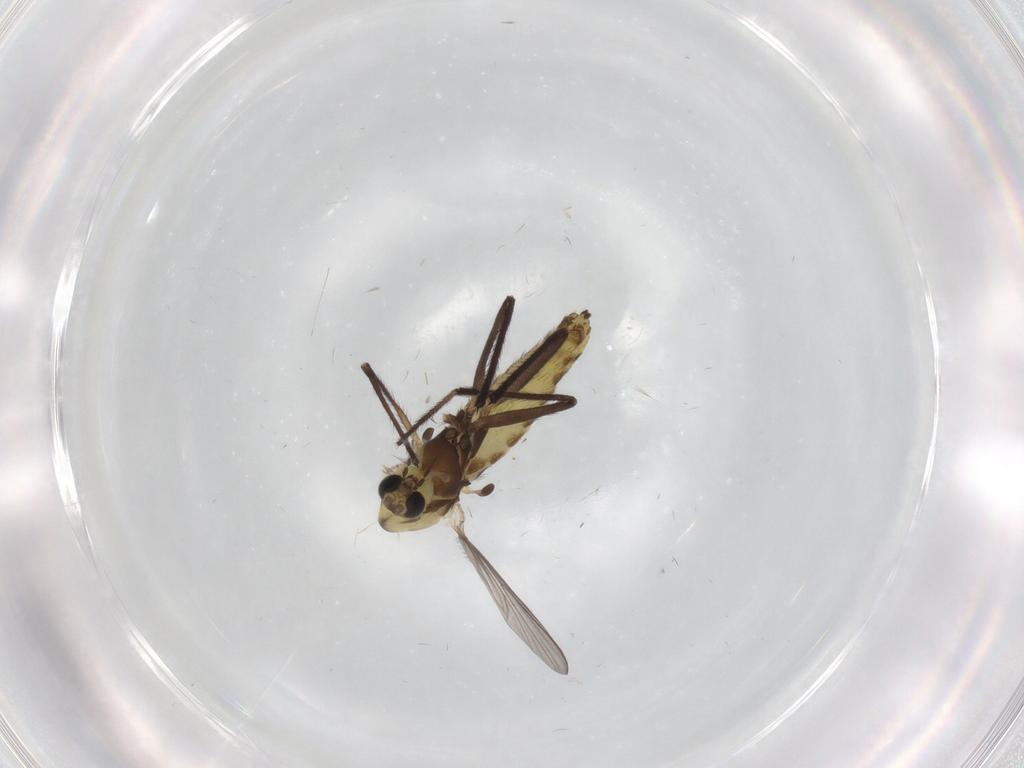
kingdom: Animalia
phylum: Arthropoda
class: Insecta
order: Diptera
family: Chironomidae
